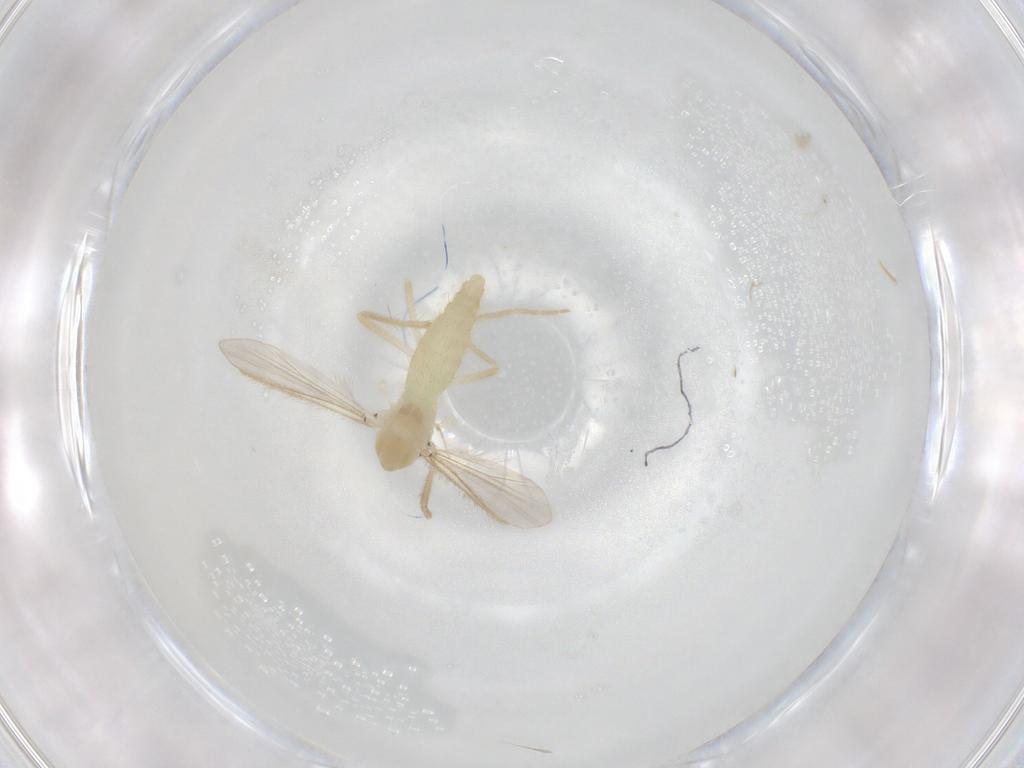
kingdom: Animalia
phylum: Arthropoda
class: Insecta
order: Diptera
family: Chironomidae
